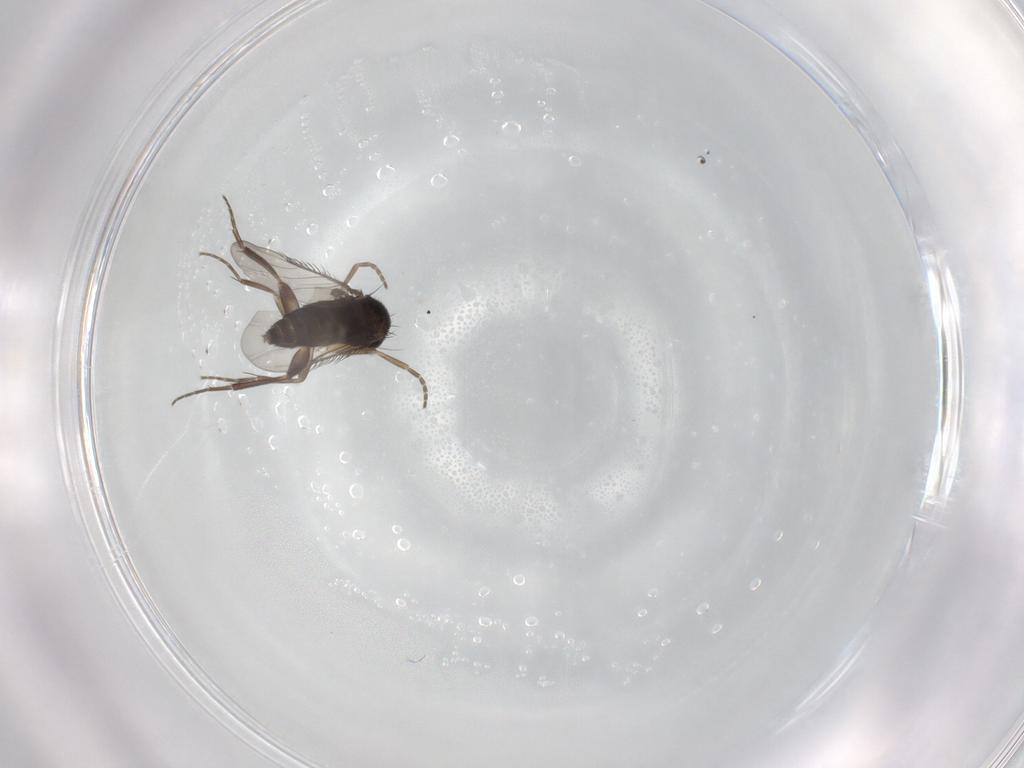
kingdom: Animalia
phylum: Arthropoda
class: Insecta
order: Diptera
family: Phoridae
